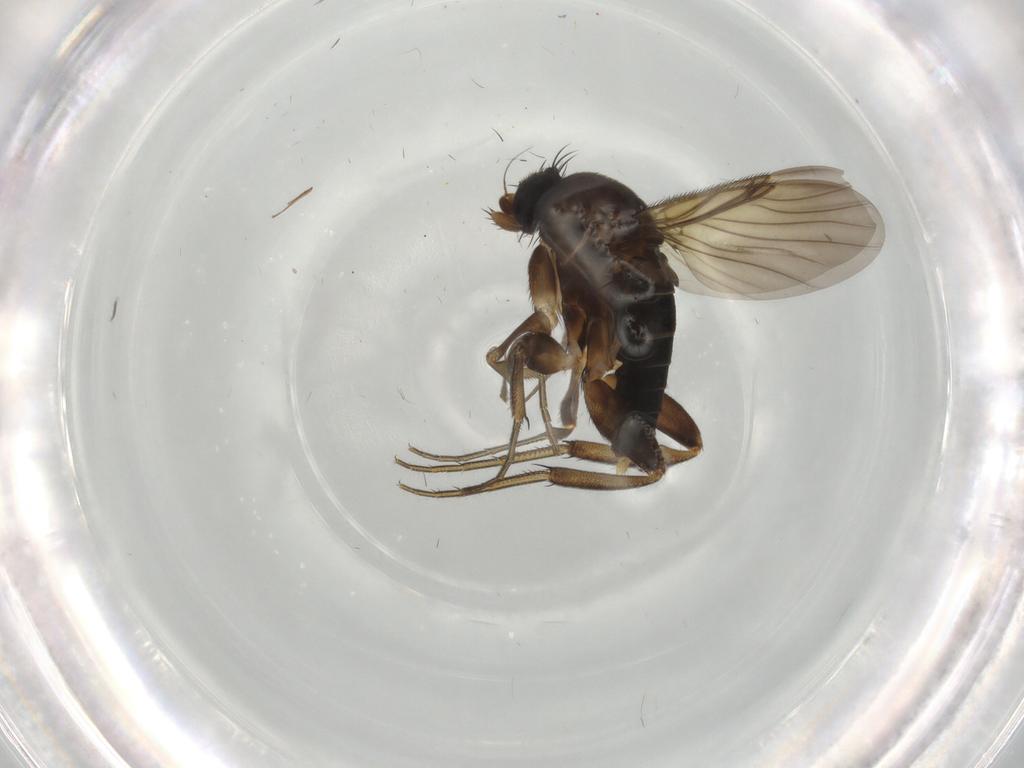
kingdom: Animalia
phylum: Arthropoda
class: Insecta
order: Diptera
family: Phoridae
